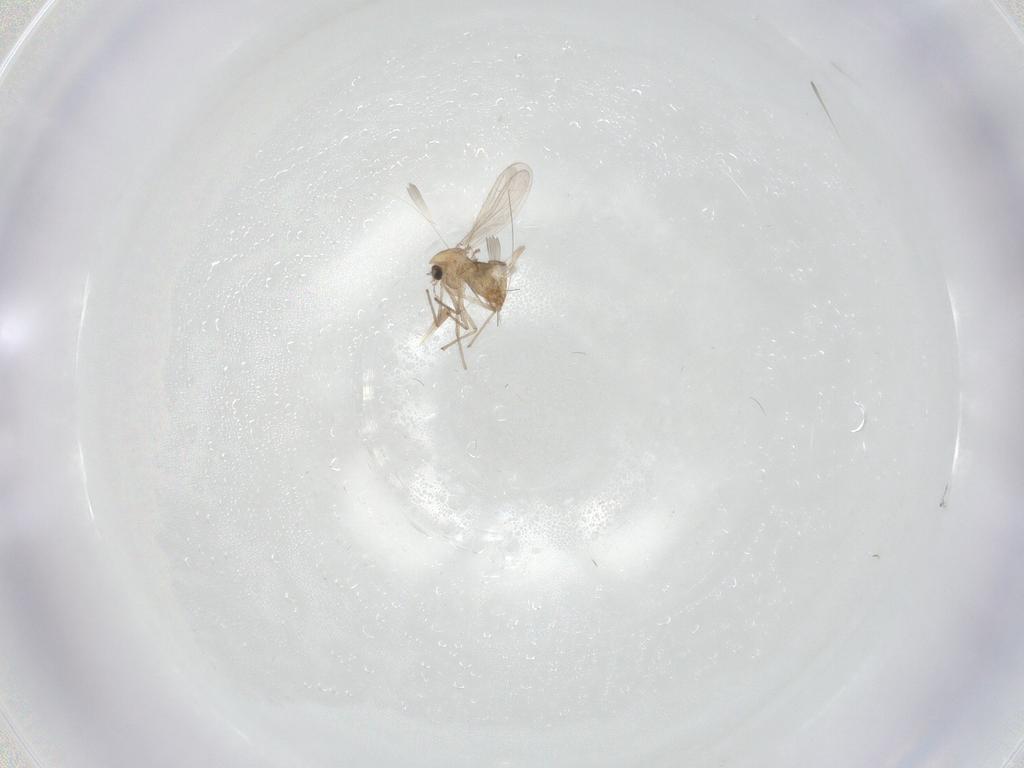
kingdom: Animalia
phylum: Arthropoda
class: Insecta
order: Diptera
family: Chironomidae
